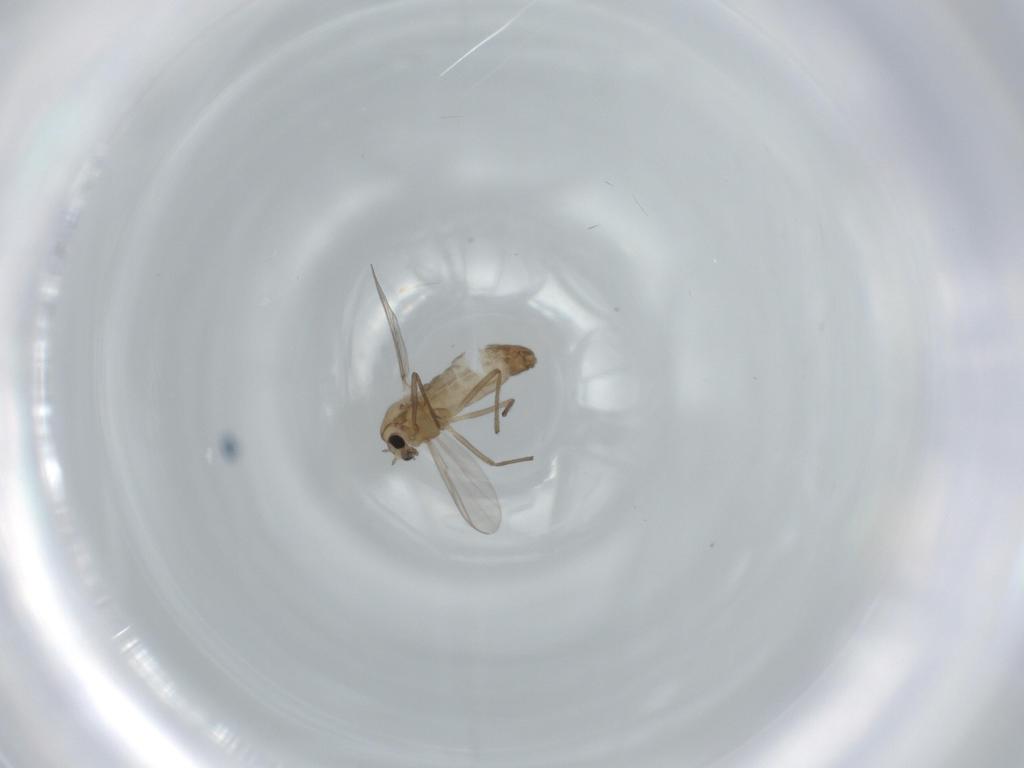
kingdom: Animalia
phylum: Arthropoda
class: Insecta
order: Diptera
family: Chironomidae
